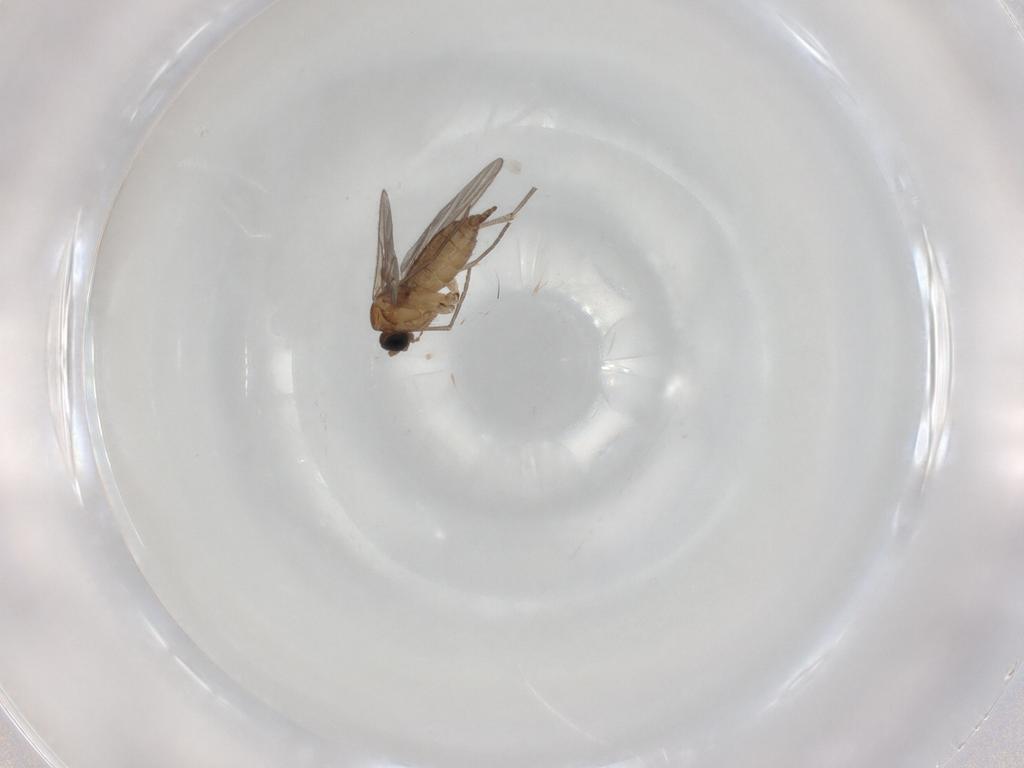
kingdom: Animalia
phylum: Arthropoda
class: Insecta
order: Diptera
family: Sciaridae
